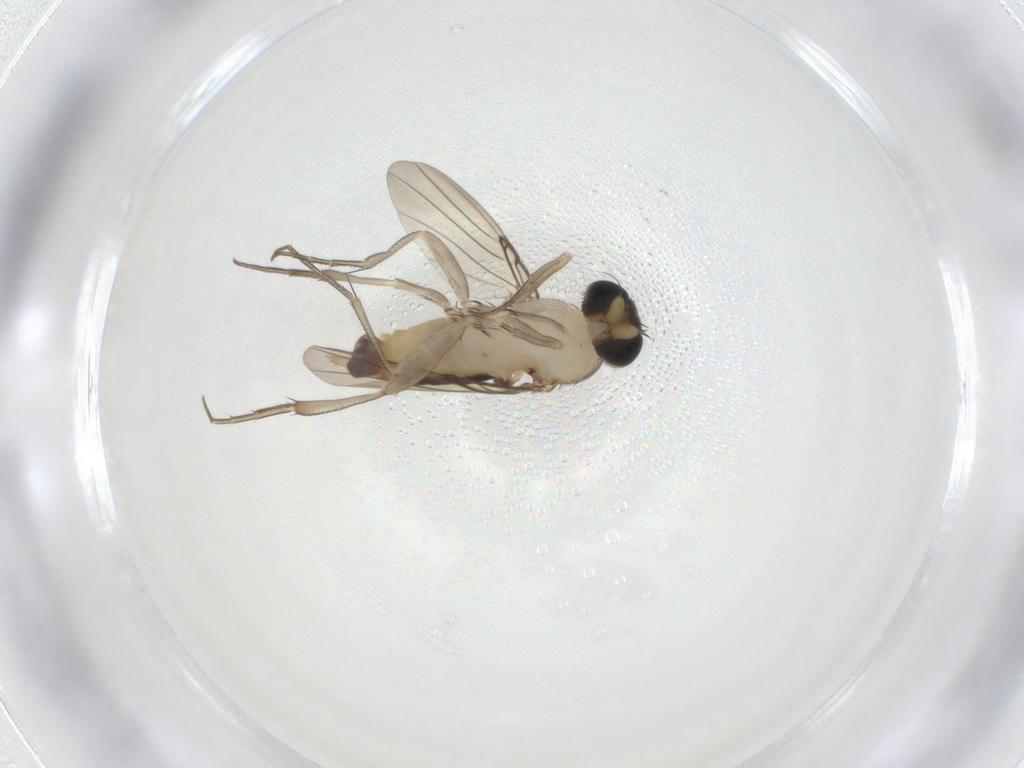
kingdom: Animalia
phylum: Arthropoda
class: Insecta
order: Diptera
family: Phoridae
